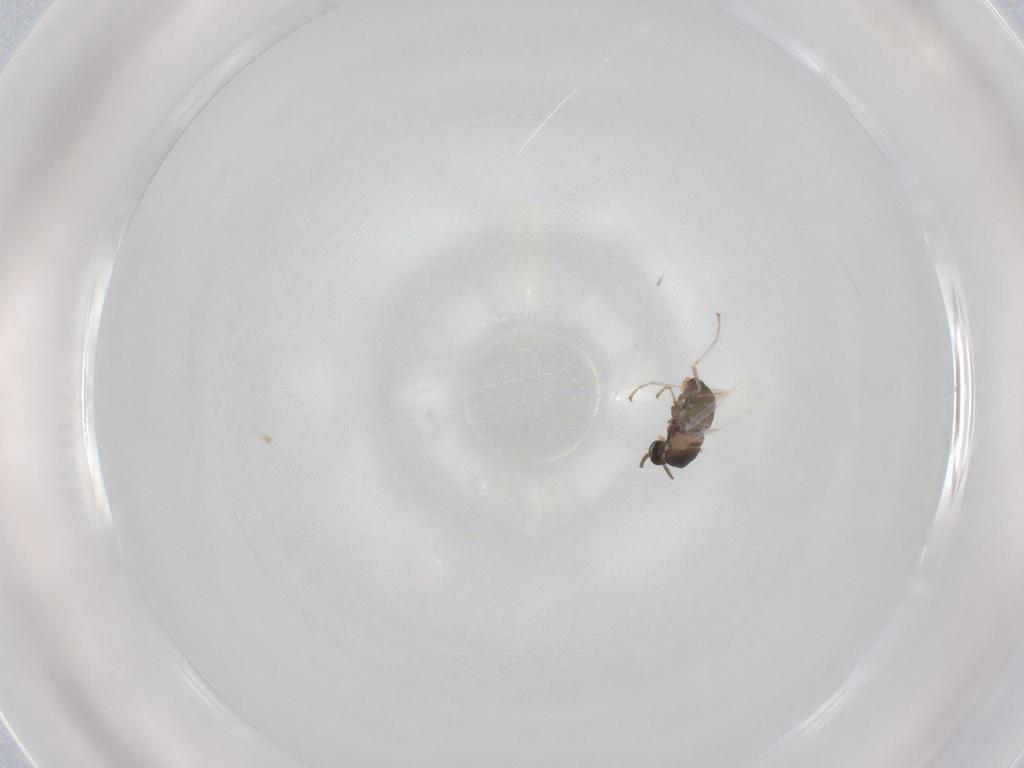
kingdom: Animalia
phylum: Arthropoda
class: Insecta
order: Diptera
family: Cecidomyiidae
